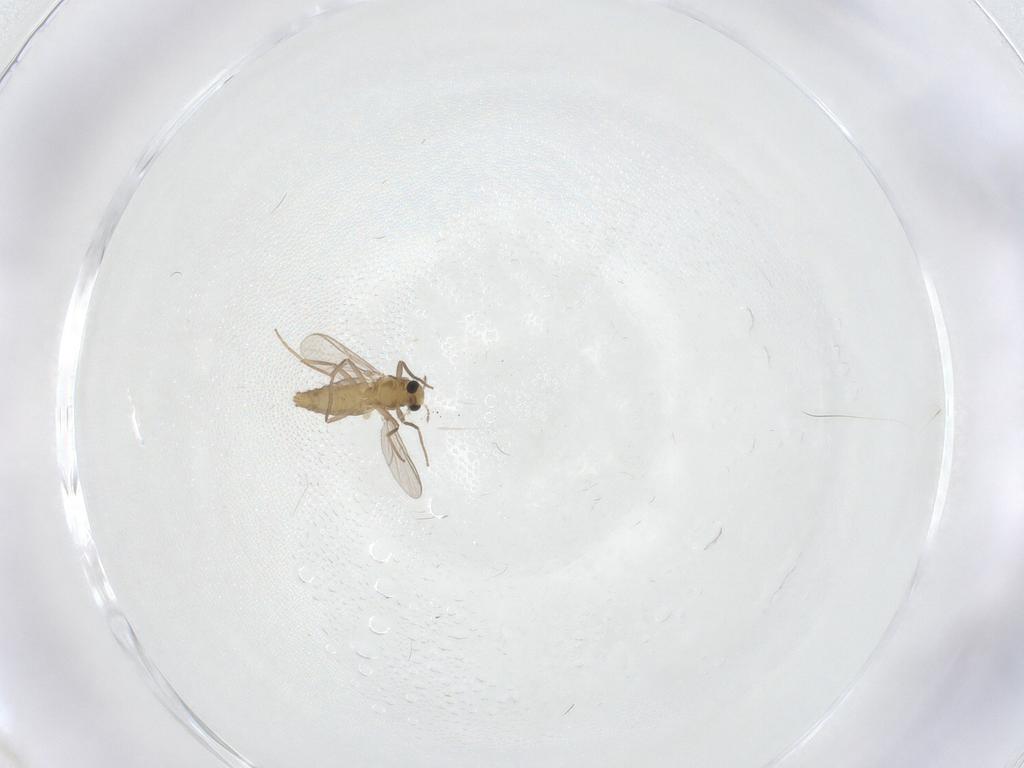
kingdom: Animalia
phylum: Arthropoda
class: Insecta
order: Diptera
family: Chironomidae
